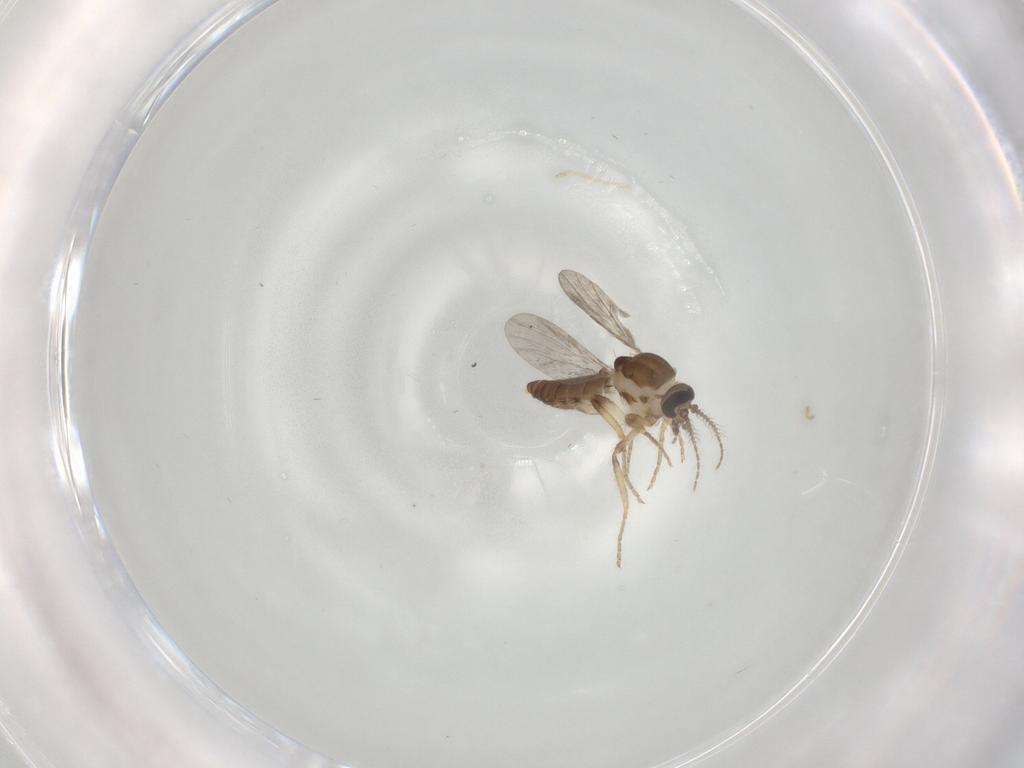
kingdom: Animalia
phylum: Arthropoda
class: Insecta
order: Diptera
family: Ceratopogonidae
